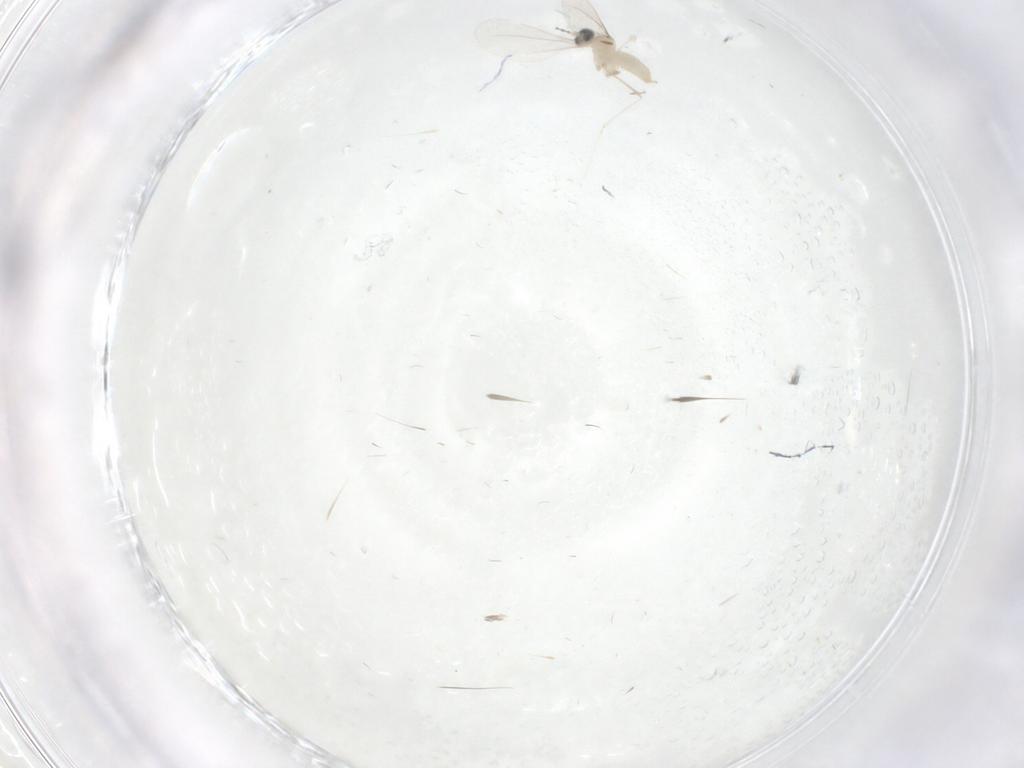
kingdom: Animalia
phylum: Arthropoda
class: Insecta
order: Diptera
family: Cecidomyiidae
